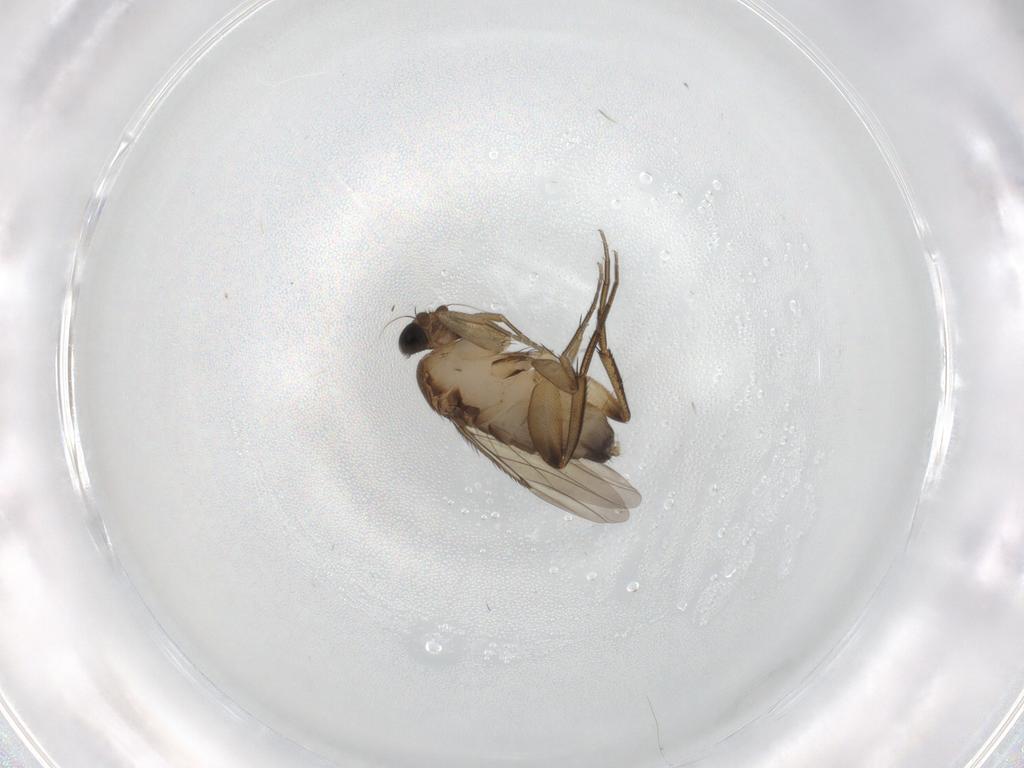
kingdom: Animalia
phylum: Arthropoda
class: Insecta
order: Diptera
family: Phoridae
